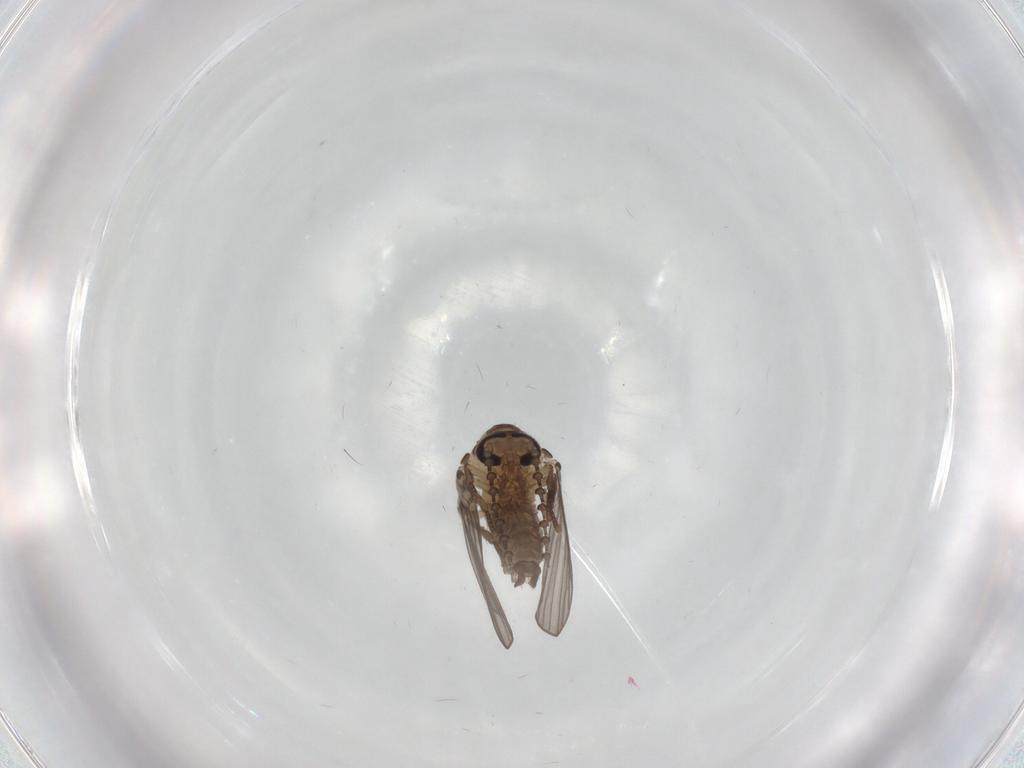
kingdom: Animalia
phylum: Arthropoda
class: Insecta
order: Diptera
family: Psychodidae
